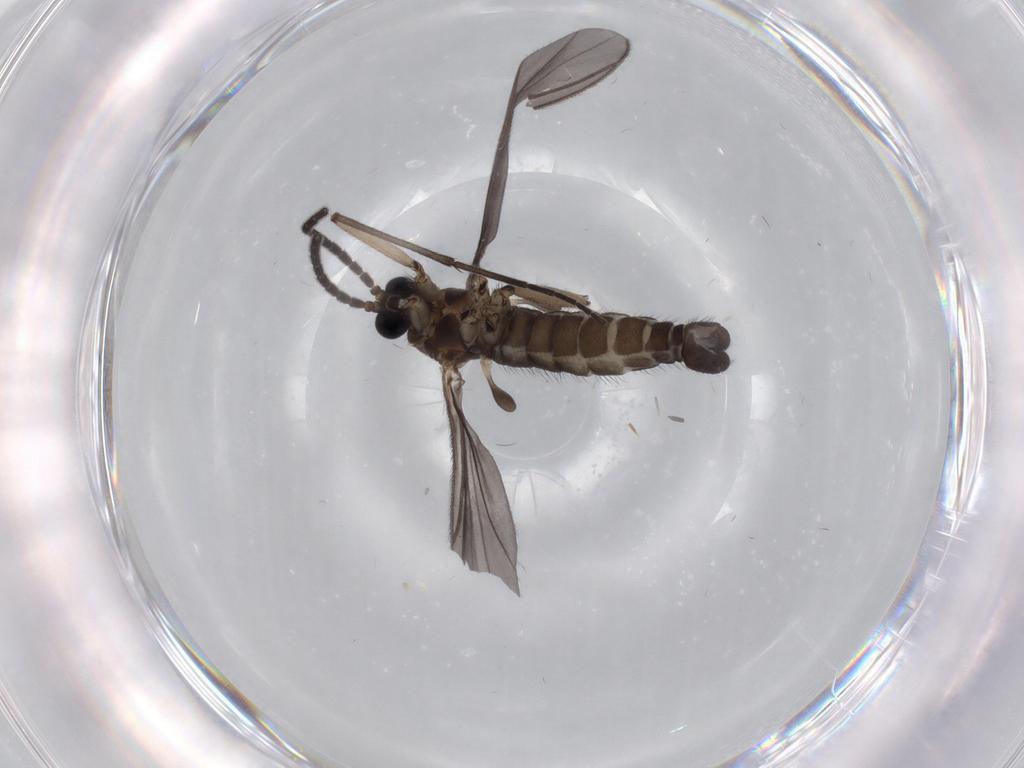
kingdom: Animalia
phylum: Arthropoda
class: Insecta
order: Diptera
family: Sciaridae
